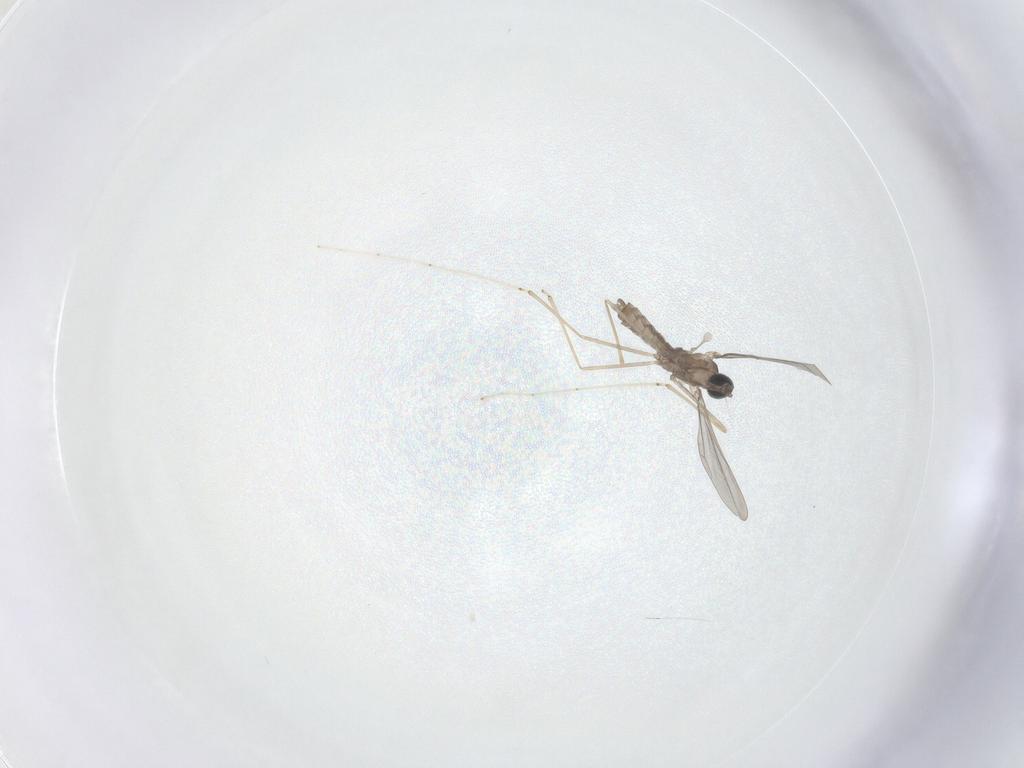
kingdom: Animalia
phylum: Arthropoda
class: Insecta
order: Diptera
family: Cecidomyiidae
